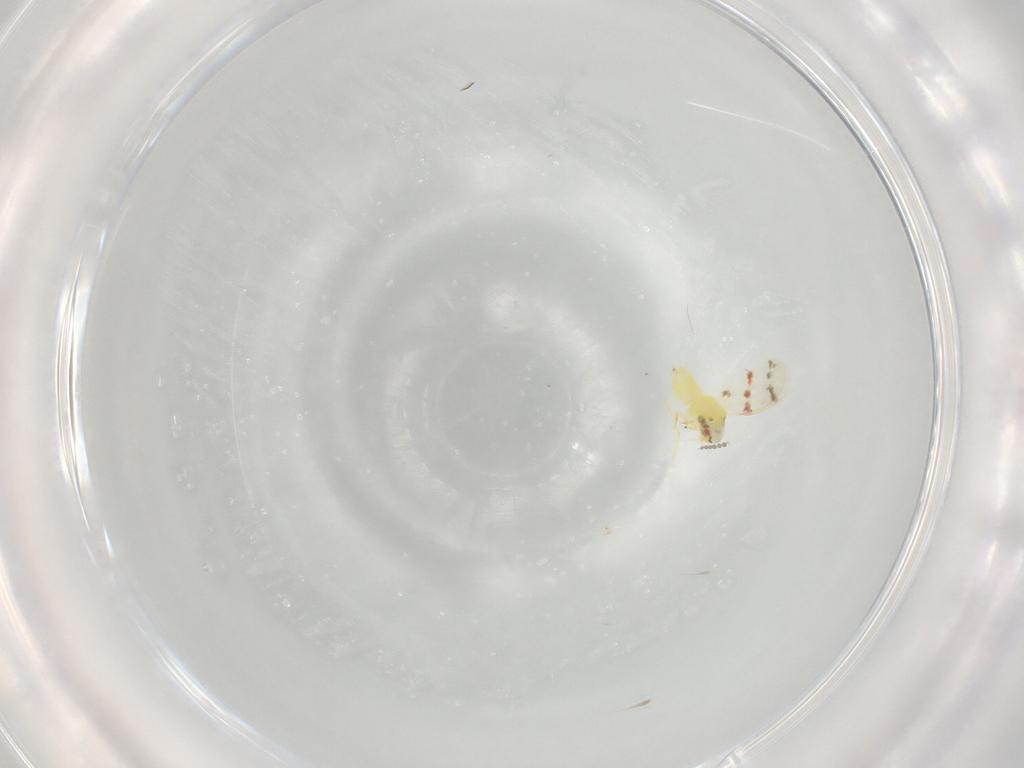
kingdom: Animalia
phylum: Arthropoda
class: Insecta
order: Hemiptera
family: Aleyrodidae
